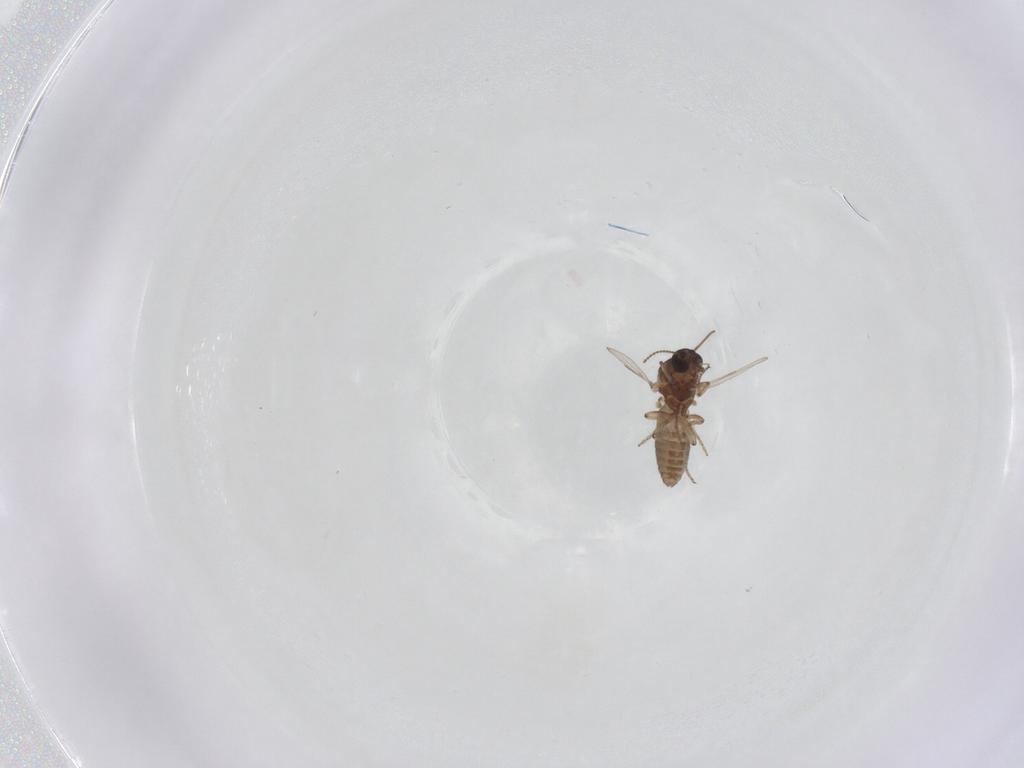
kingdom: Animalia
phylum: Arthropoda
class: Insecta
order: Diptera
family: Ceratopogonidae
